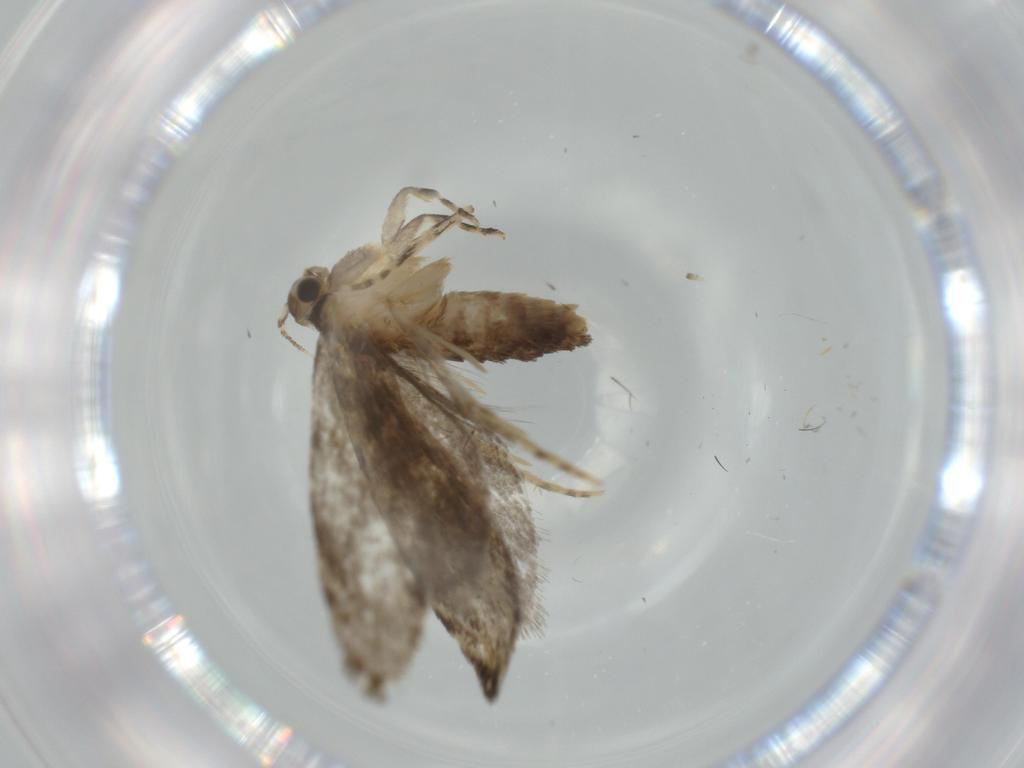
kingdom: Animalia
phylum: Arthropoda
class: Insecta
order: Lepidoptera
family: Tineidae
